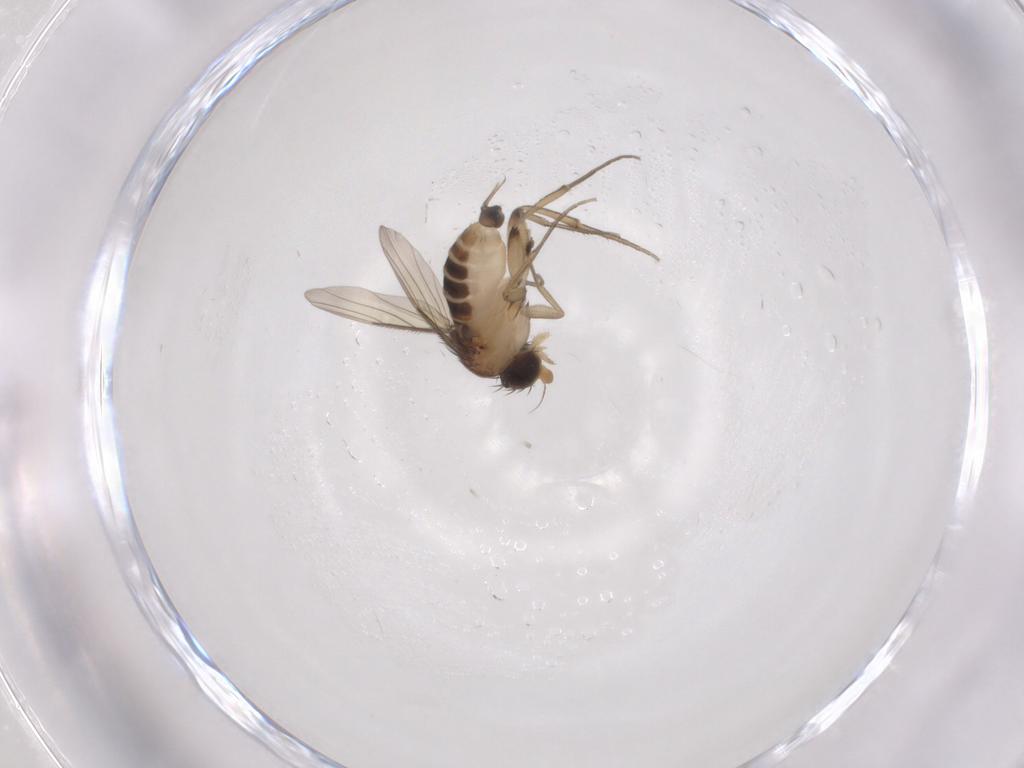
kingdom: Animalia
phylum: Arthropoda
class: Insecta
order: Diptera
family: Phoridae
